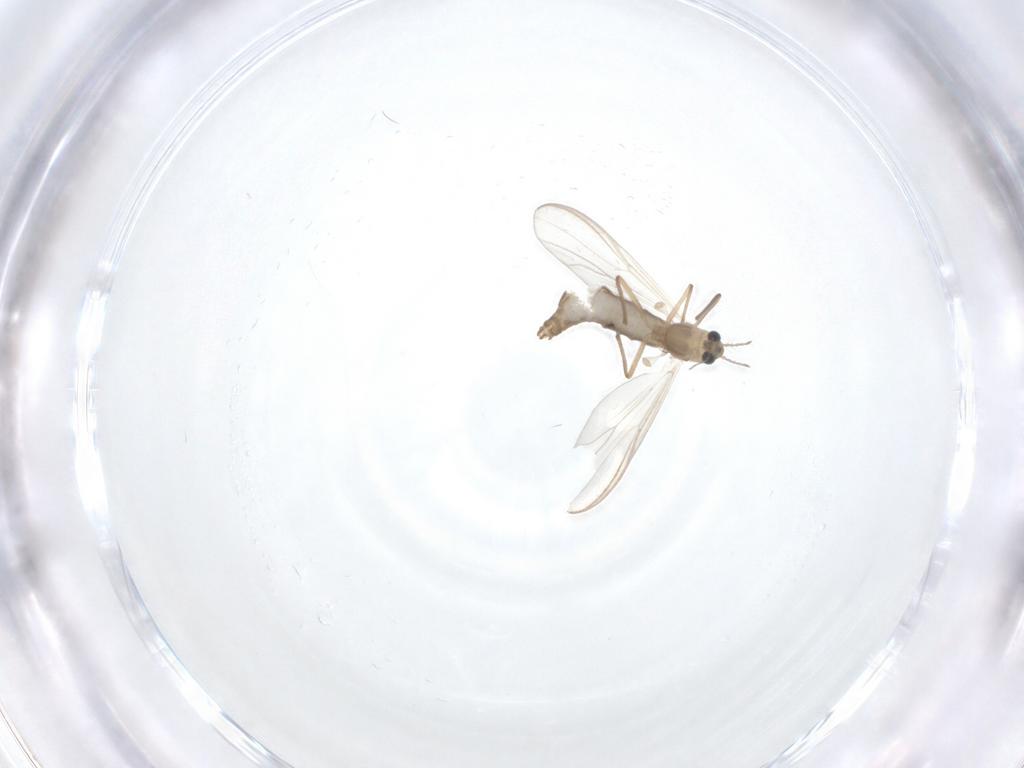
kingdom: Animalia
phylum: Arthropoda
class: Insecta
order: Diptera
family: Chironomidae
